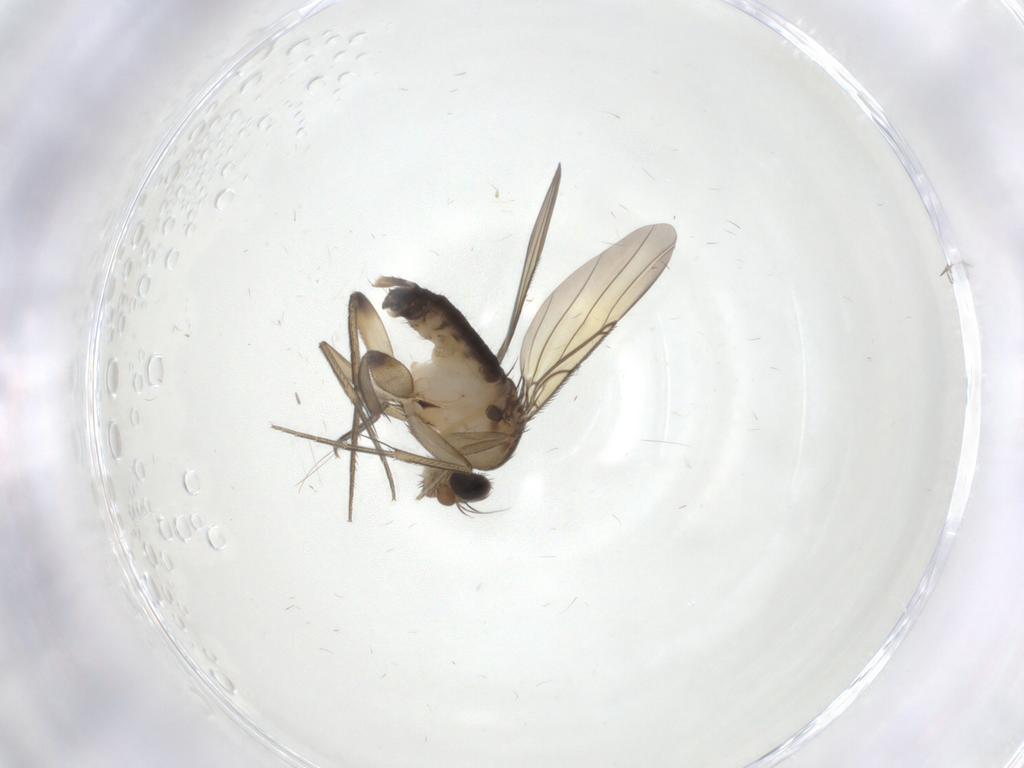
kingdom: Animalia
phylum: Arthropoda
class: Insecta
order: Diptera
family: Phoridae
